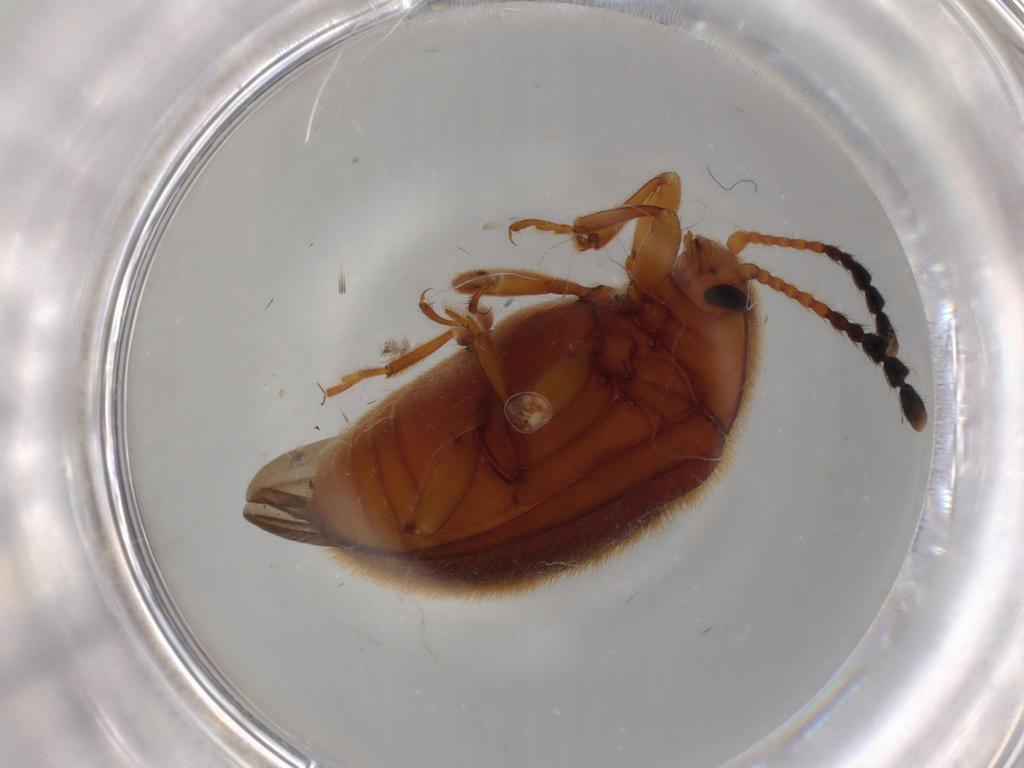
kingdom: Animalia
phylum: Arthropoda
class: Insecta
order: Coleoptera
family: Endomychidae
